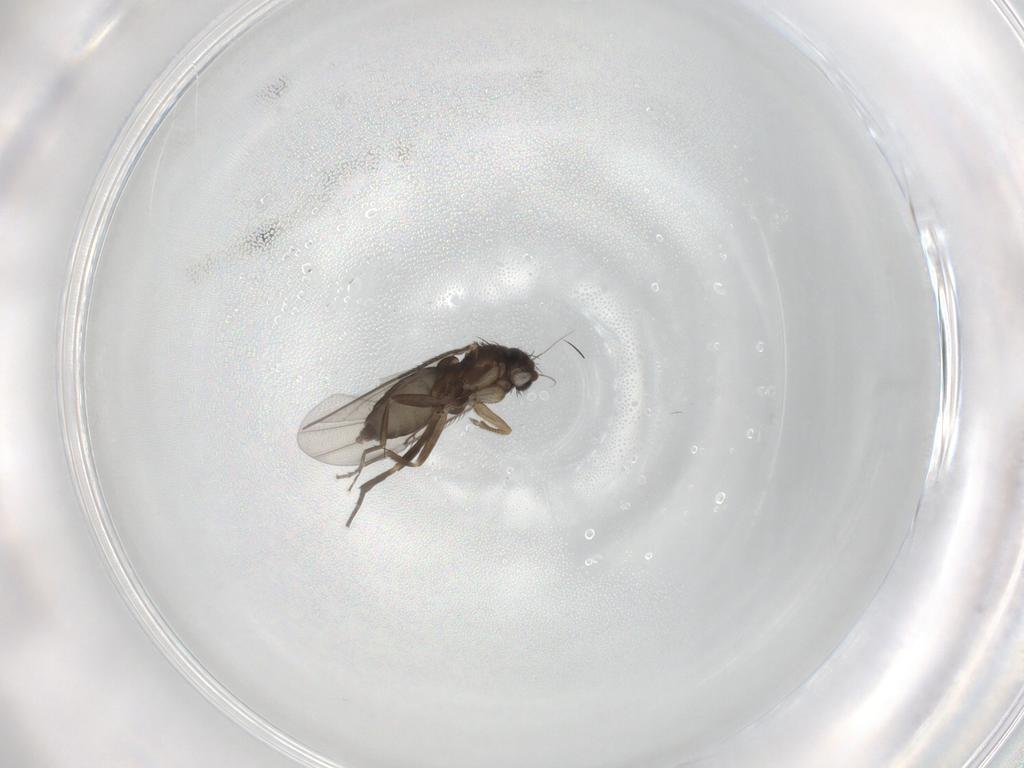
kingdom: Animalia
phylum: Arthropoda
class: Insecta
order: Diptera
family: Phoridae
